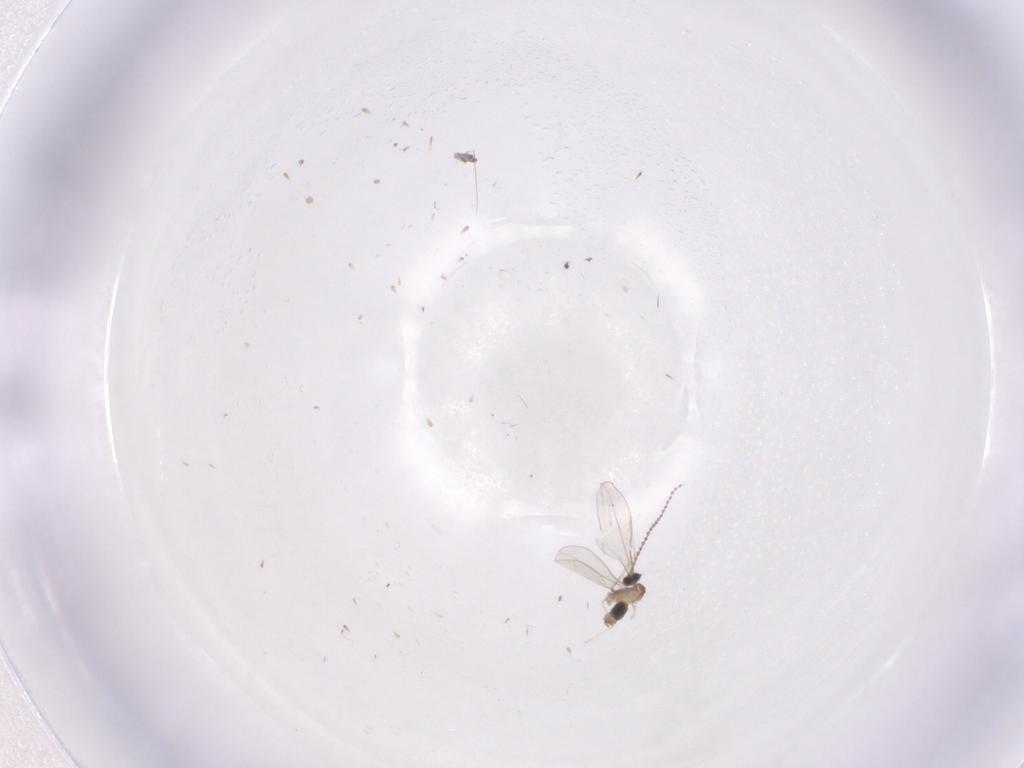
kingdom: Animalia
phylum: Arthropoda
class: Insecta
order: Diptera
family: Cecidomyiidae
